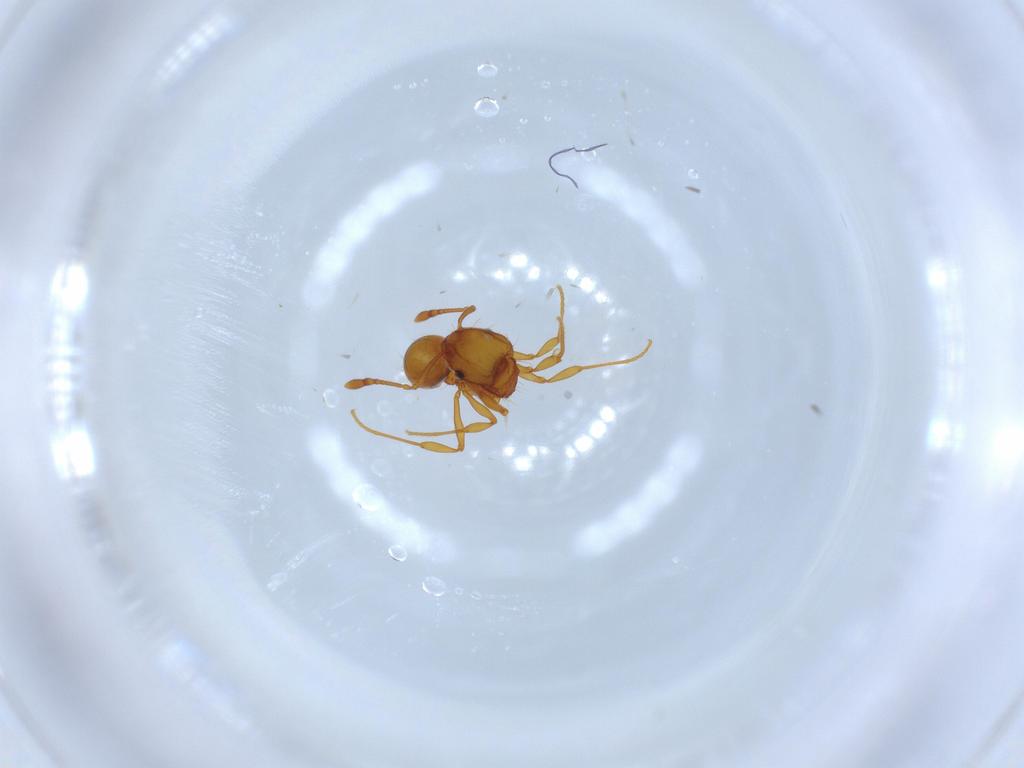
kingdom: Animalia
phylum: Arthropoda
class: Insecta
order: Hymenoptera
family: Formicidae
